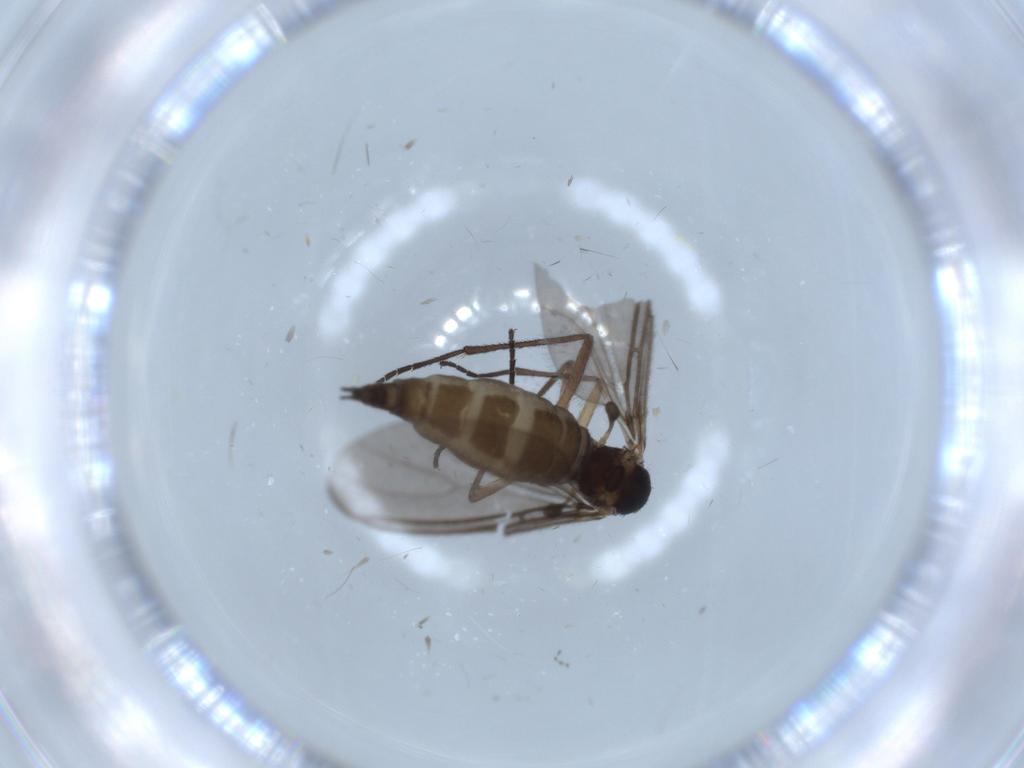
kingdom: Animalia
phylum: Arthropoda
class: Insecta
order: Diptera
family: Sciaridae
